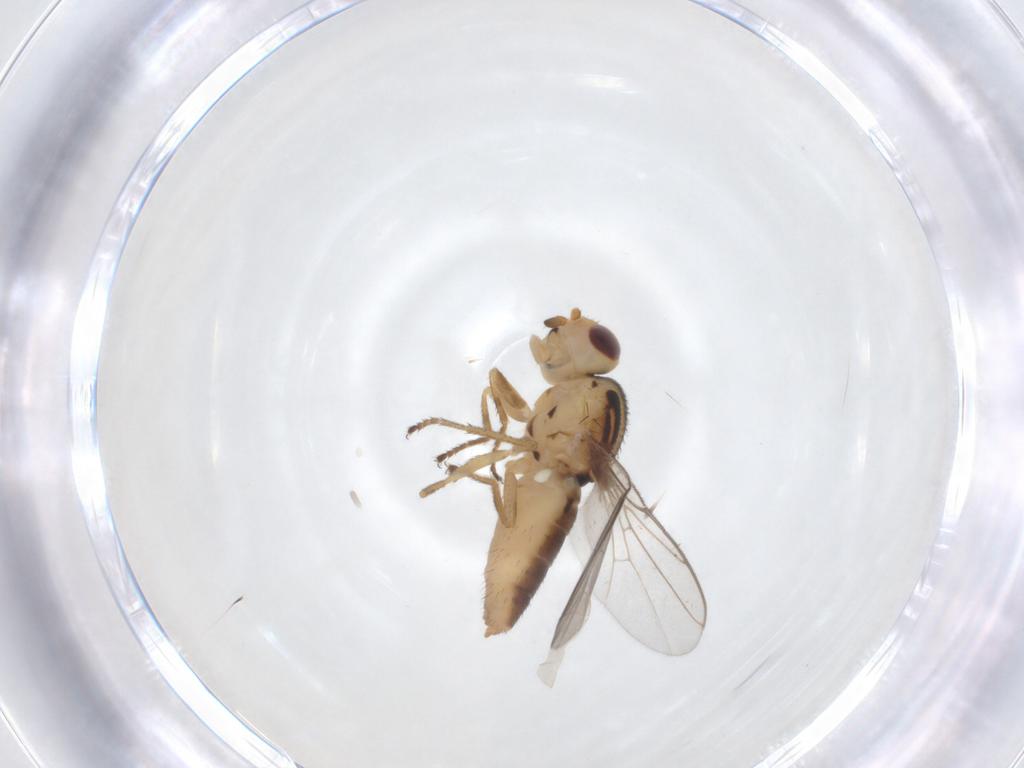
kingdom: Animalia
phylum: Arthropoda
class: Insecta
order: Diptera
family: Chloropidae
